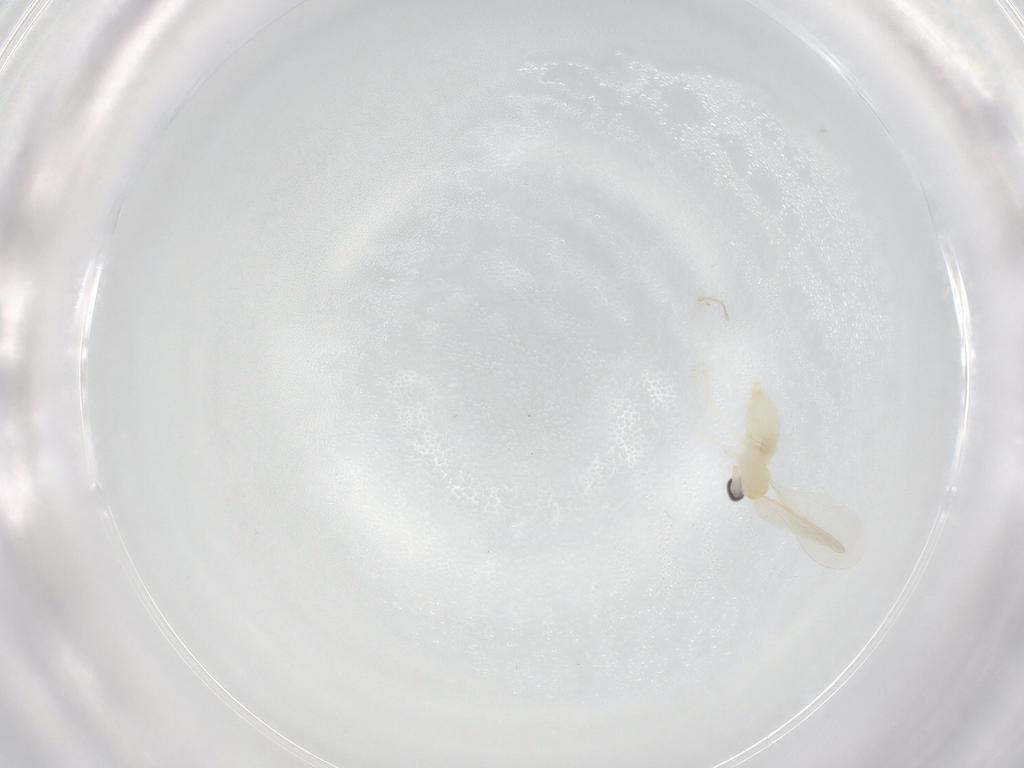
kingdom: Animalia
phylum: Arthropoda
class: Insecta
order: Diptera
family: Cecidomyiidae
